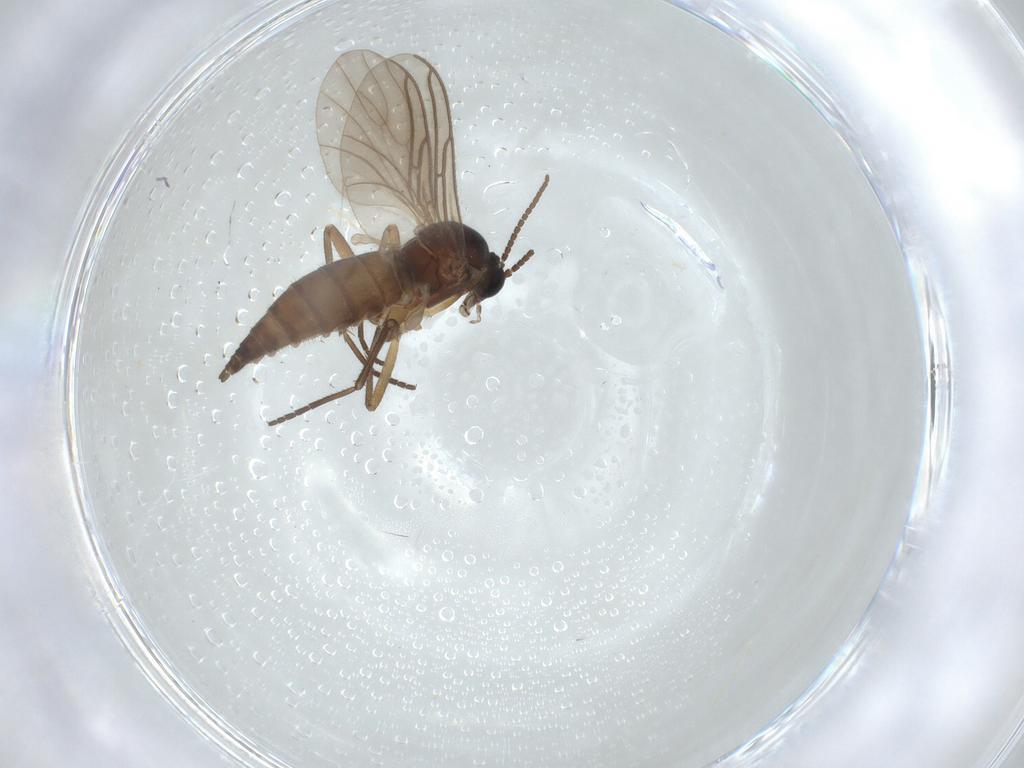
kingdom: Animalia
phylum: Arthropoda
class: Insecta
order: Diptera
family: Sciaridae
